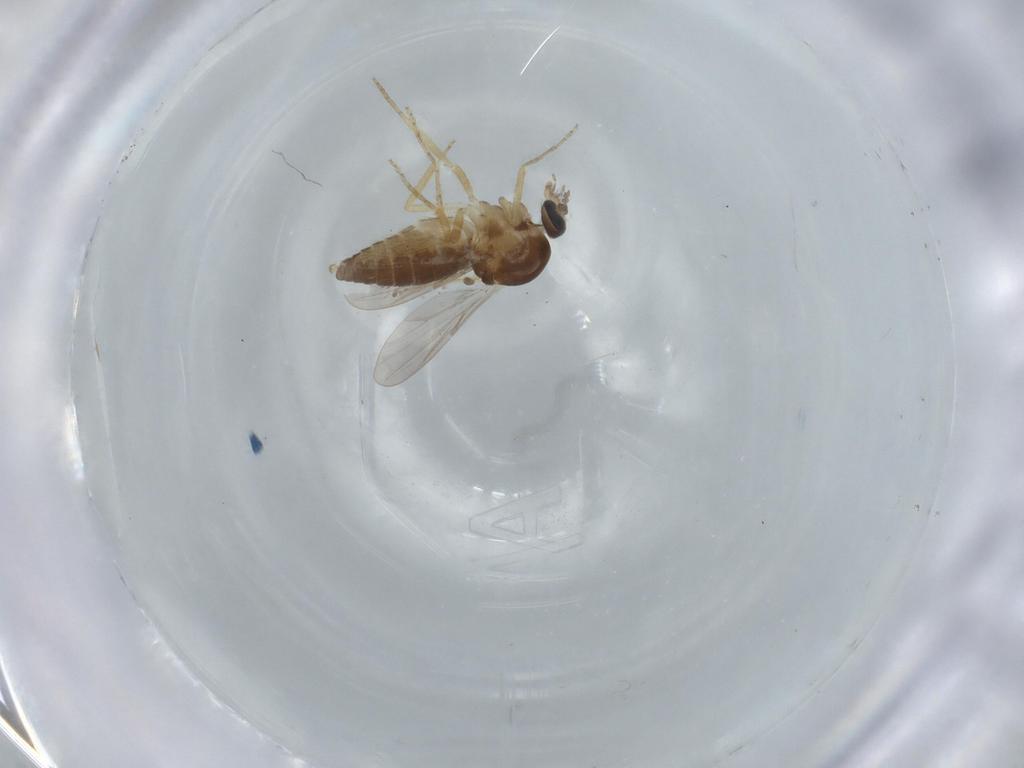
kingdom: Animalia
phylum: Arthropoda
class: Insecta
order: Diptera
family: Ceratopogonidae
